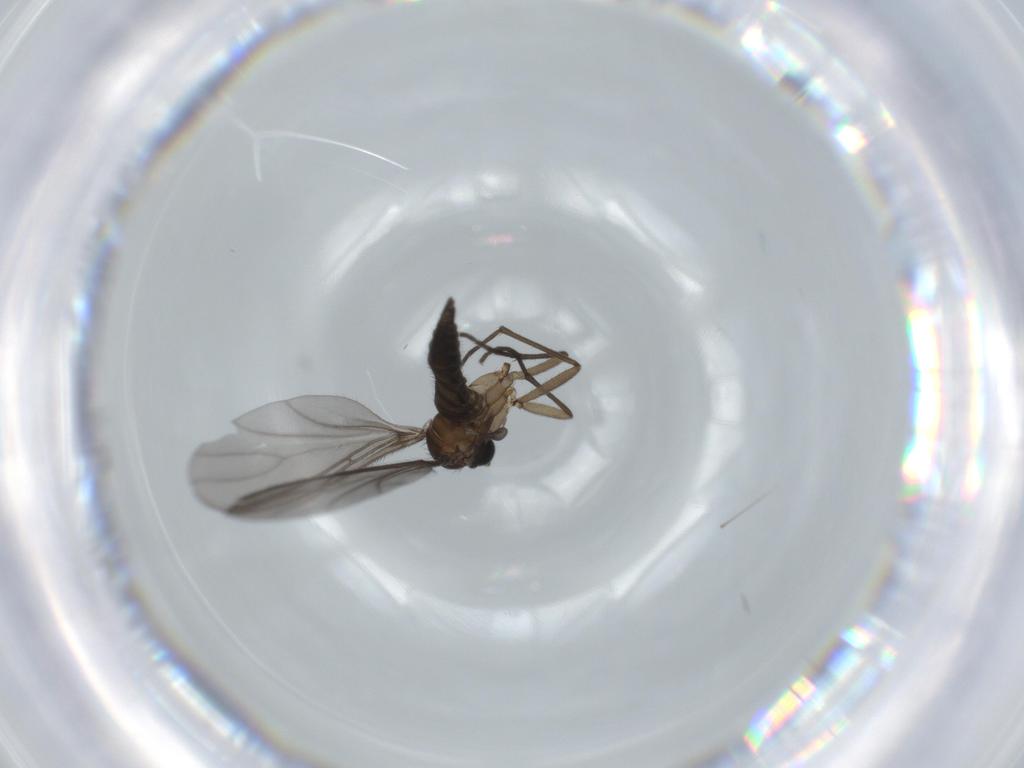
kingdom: Animalia
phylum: Arthropoda
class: Insecta
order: Diptera
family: Sciaridae
